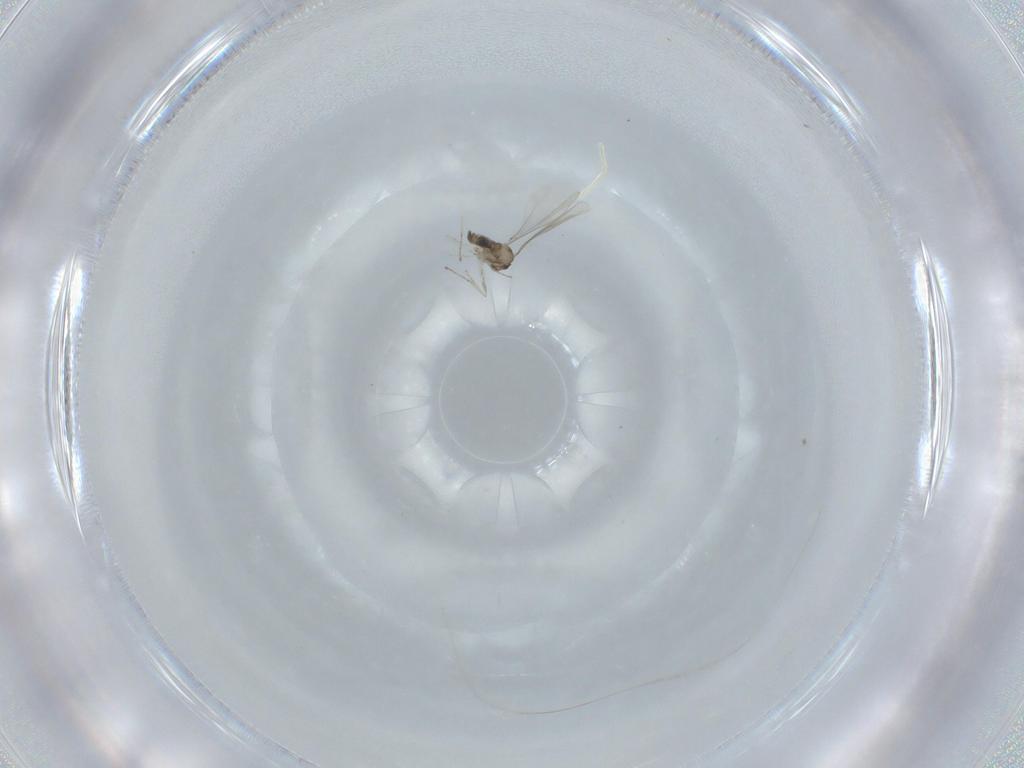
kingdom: Animalia
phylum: Arthropoda
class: Insecta
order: Diptera
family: Cecidomyiidae
